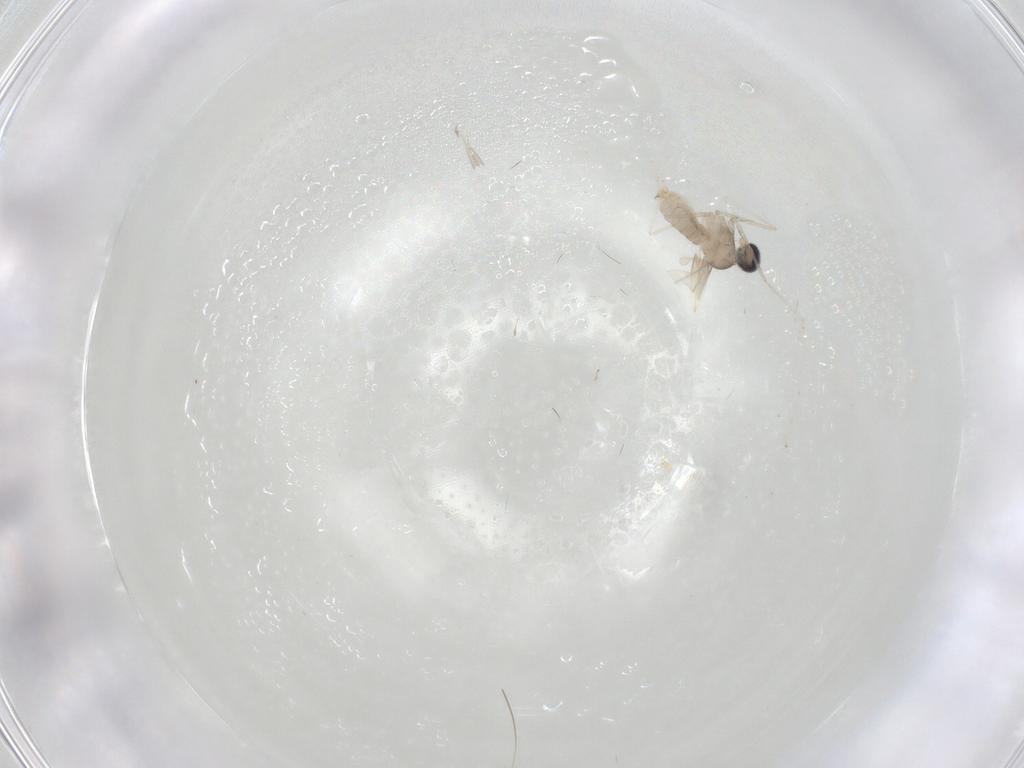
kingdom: Animalia
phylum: Arthropoda
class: Insecta
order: Diptera
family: Cecidomyiidae
